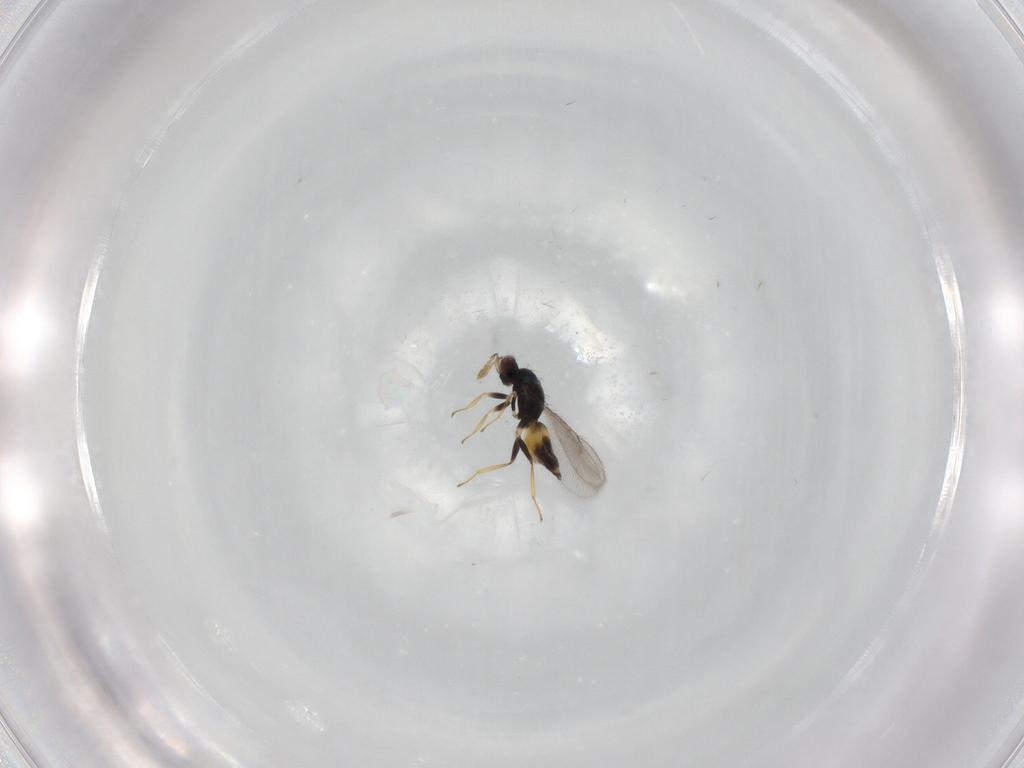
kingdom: Animalia
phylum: Arthropoda
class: Insecta
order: Hymenoptera
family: Eulophidae
